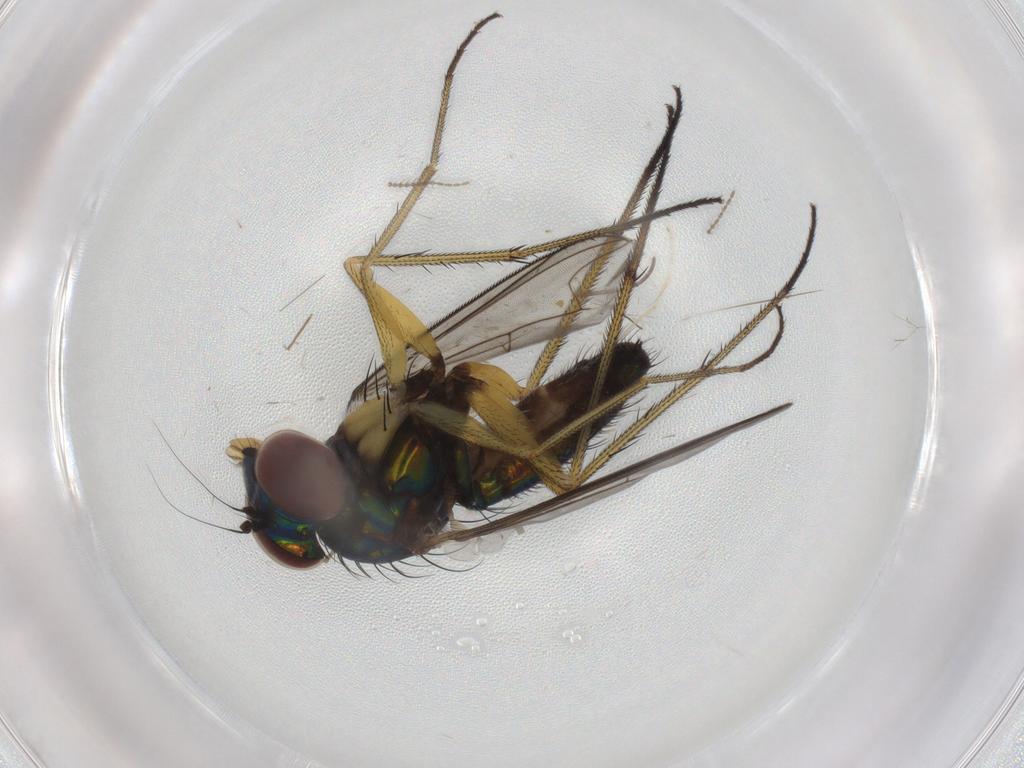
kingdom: Animalia
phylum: Arthropoda
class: Insecta
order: Diptera
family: Dolichopodidae
